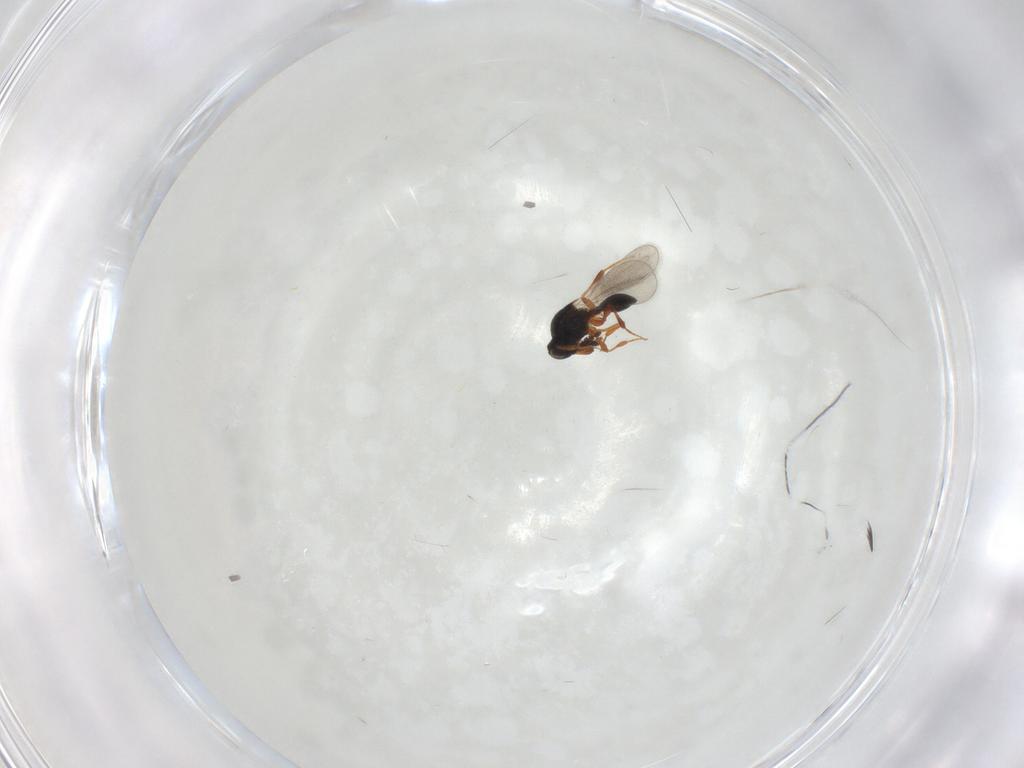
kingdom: Animalia
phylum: Arthropoda
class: Insecta
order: Hymenoptera
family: Platygastridae
